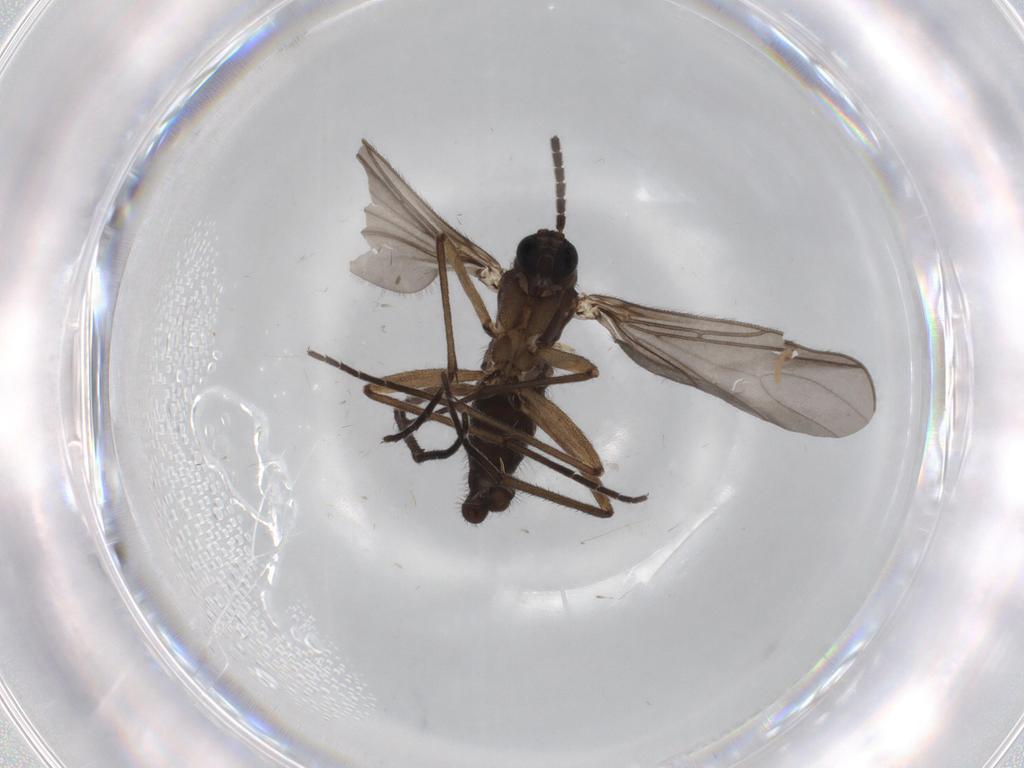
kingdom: Animalia
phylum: Arthropoda
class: Insecta
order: Diptera
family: Sciaridae
